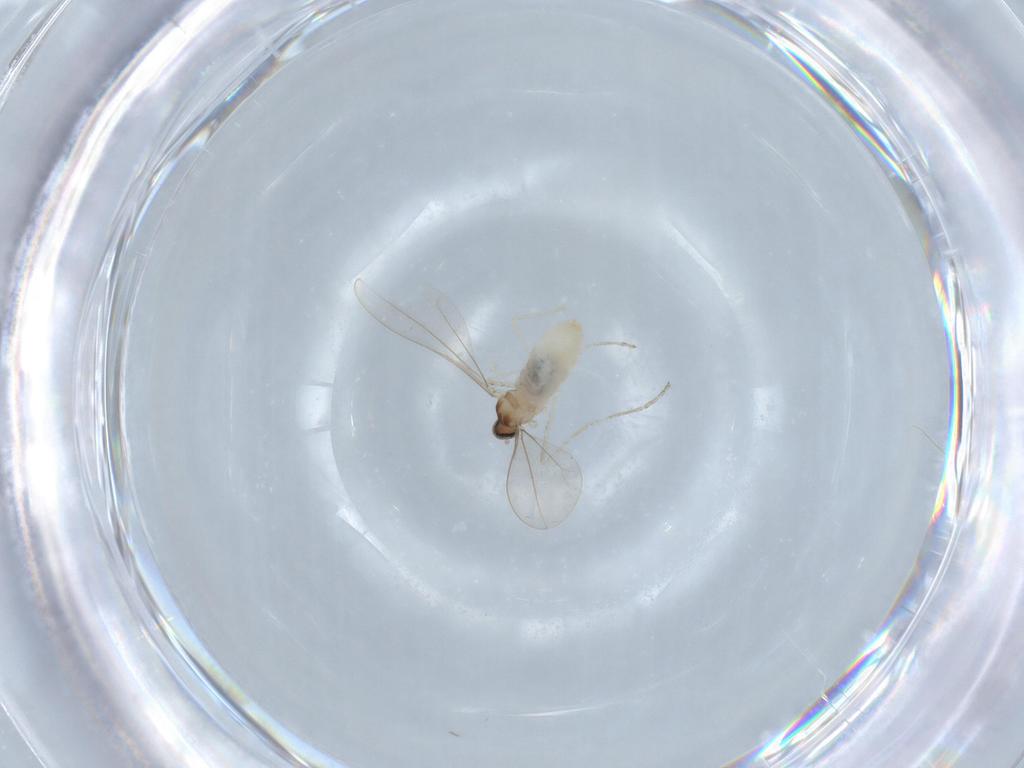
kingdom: Animalia
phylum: Arthropoda
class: Insecta
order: Diptera
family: Cecidomyiidae
